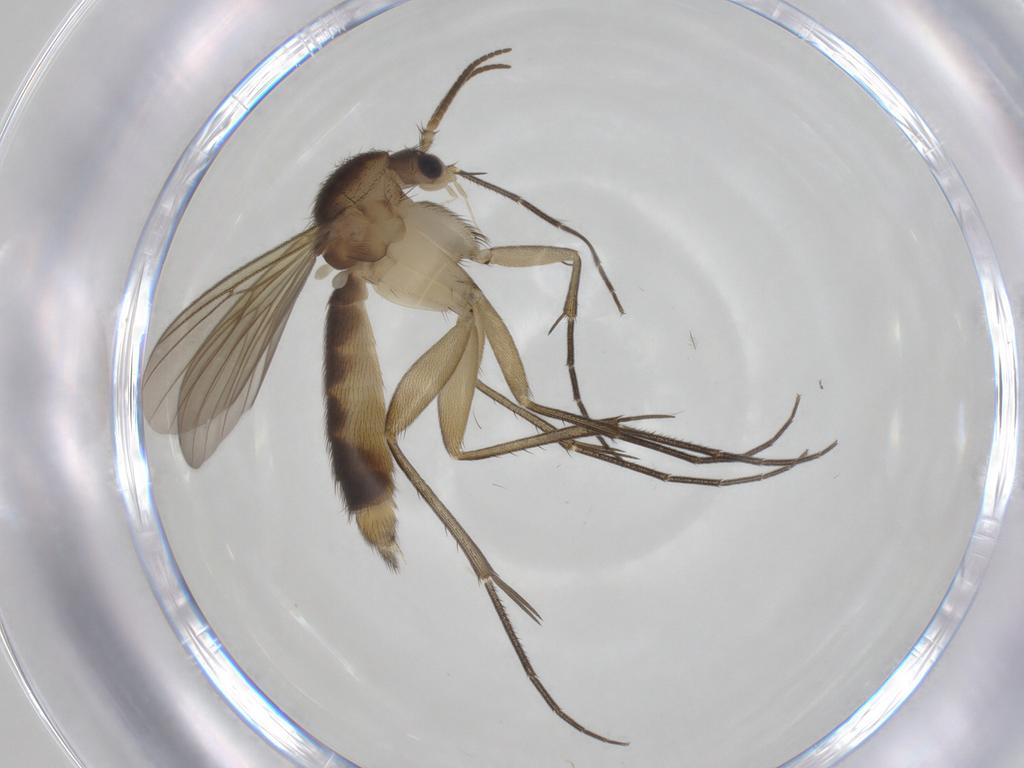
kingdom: Animalia
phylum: Arthropoda
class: Insecta
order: Diptera
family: Mycetophilidae
